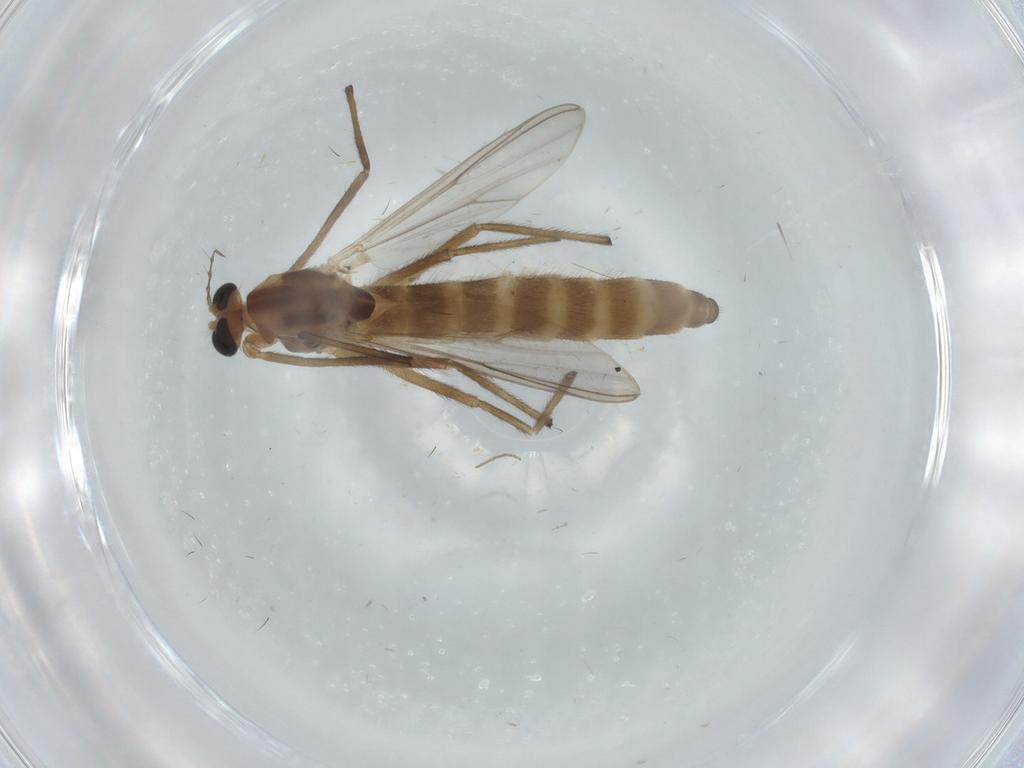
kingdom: Animalia
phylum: Arthropoda
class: Insecta
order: Diptera
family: Chironomidae
